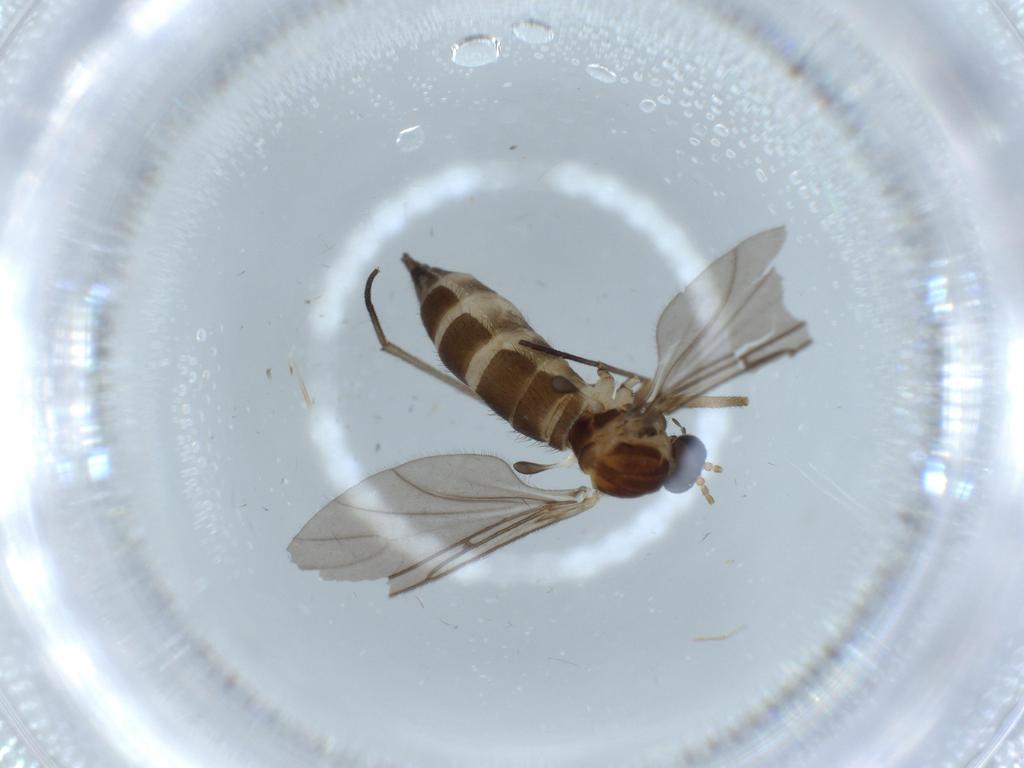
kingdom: Animalia
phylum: Arthropoda
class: Insecta
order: Diptera
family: Sciaridae
